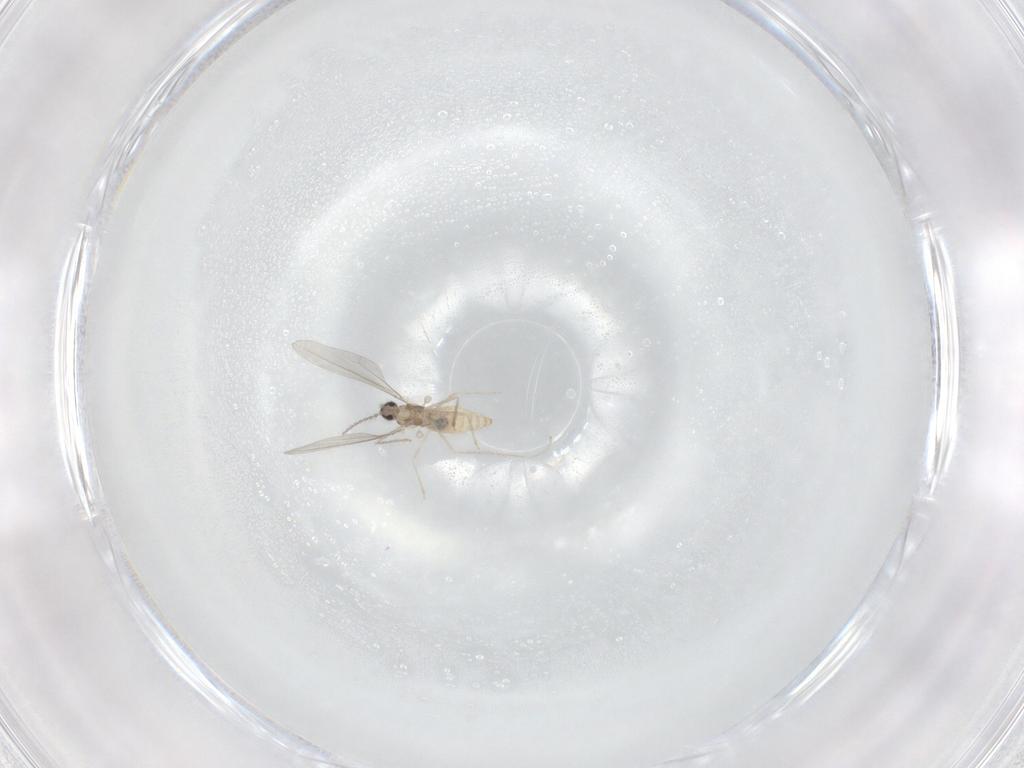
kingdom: Animalia
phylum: Arthropoda
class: Insecta
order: Diptera
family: Cecidomyiidae
